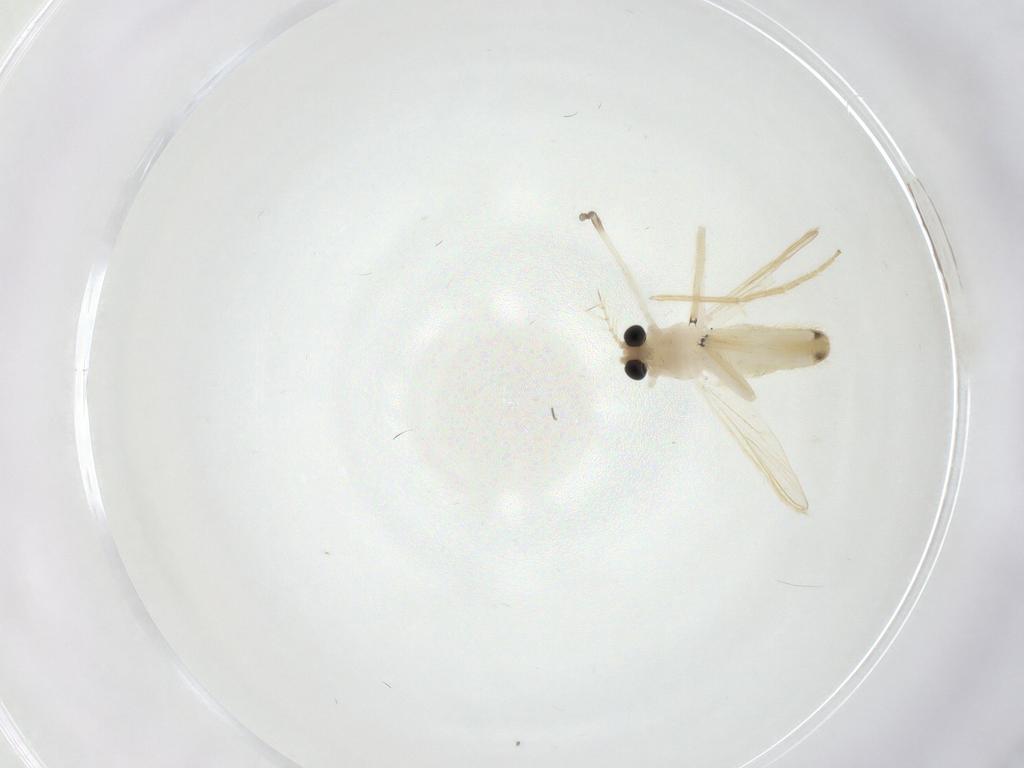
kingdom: Animalia
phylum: Arthropoda
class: Insecta
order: Diptera
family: Chironomidae
